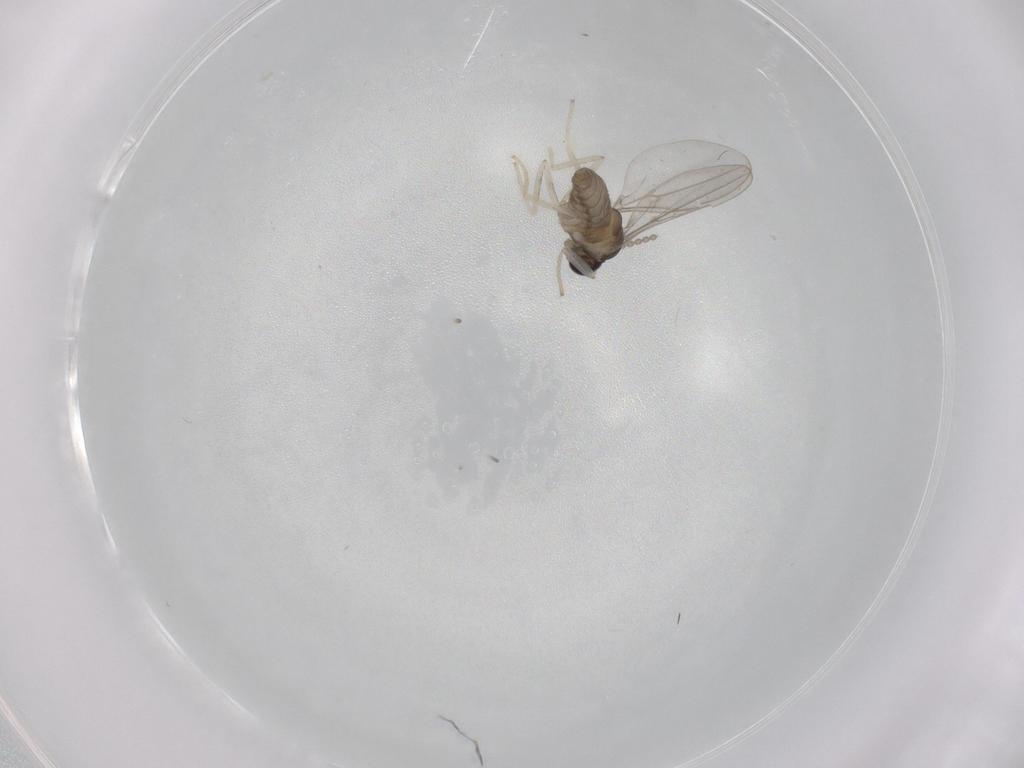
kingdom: Animalia
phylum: Arthropoda
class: Insecta
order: Diptera
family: Cecidomyiidae
